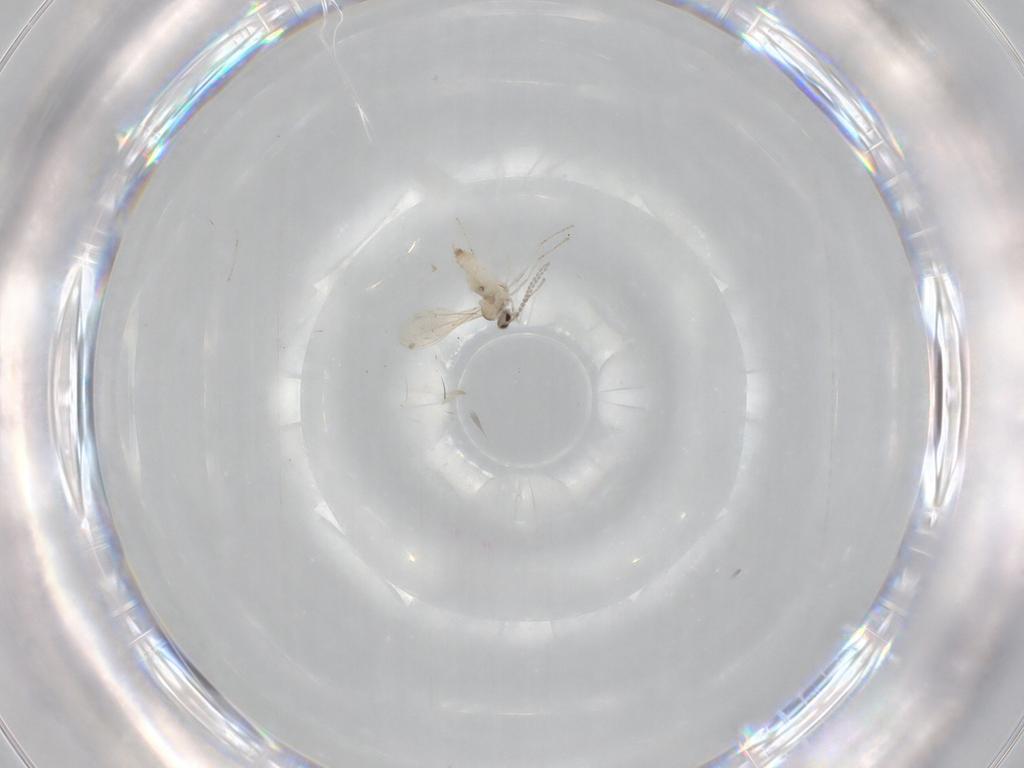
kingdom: Animalia
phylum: Arthropoda
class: Insecta
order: Diptera
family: Cecidomyiidae
